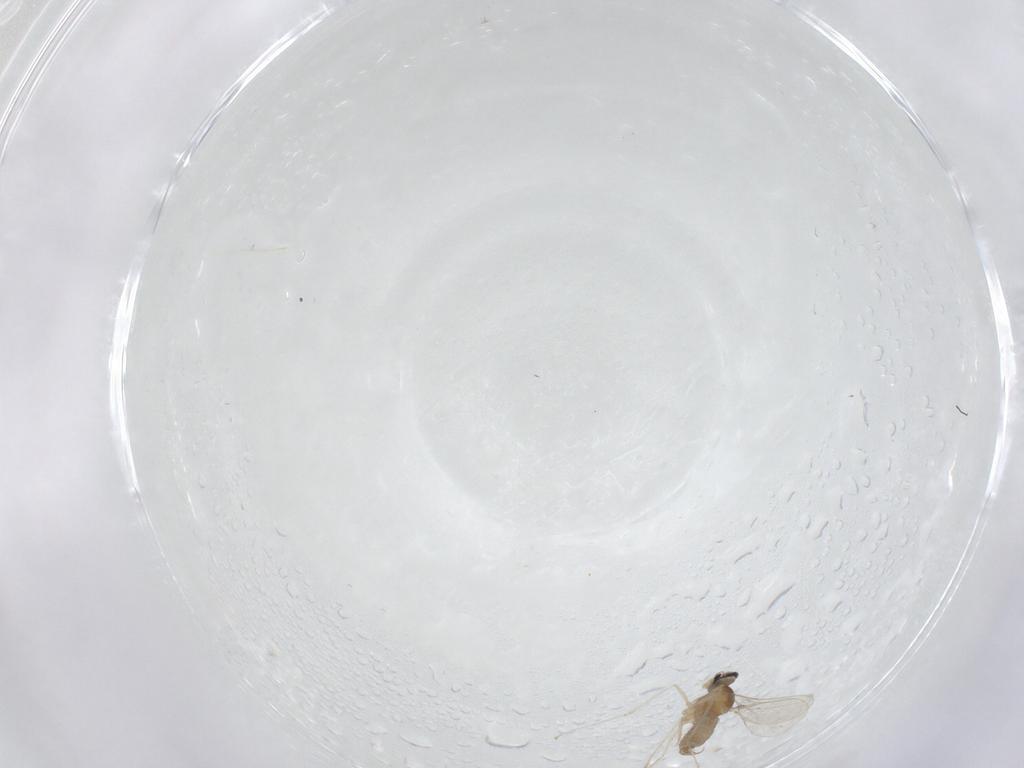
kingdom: Animalia
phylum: Arthropoda
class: Insecta
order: Diptera
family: Cecidomyiidae
